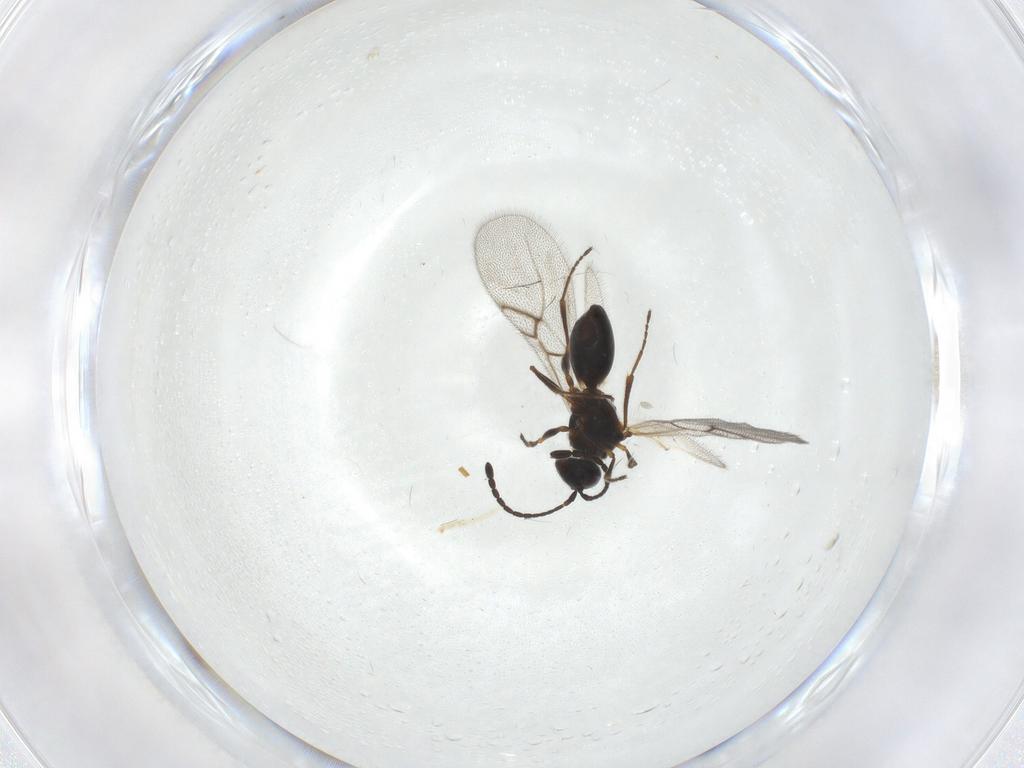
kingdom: Animalia
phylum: Arthropoda
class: Insecta
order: Hymenoptera
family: Figitidae
